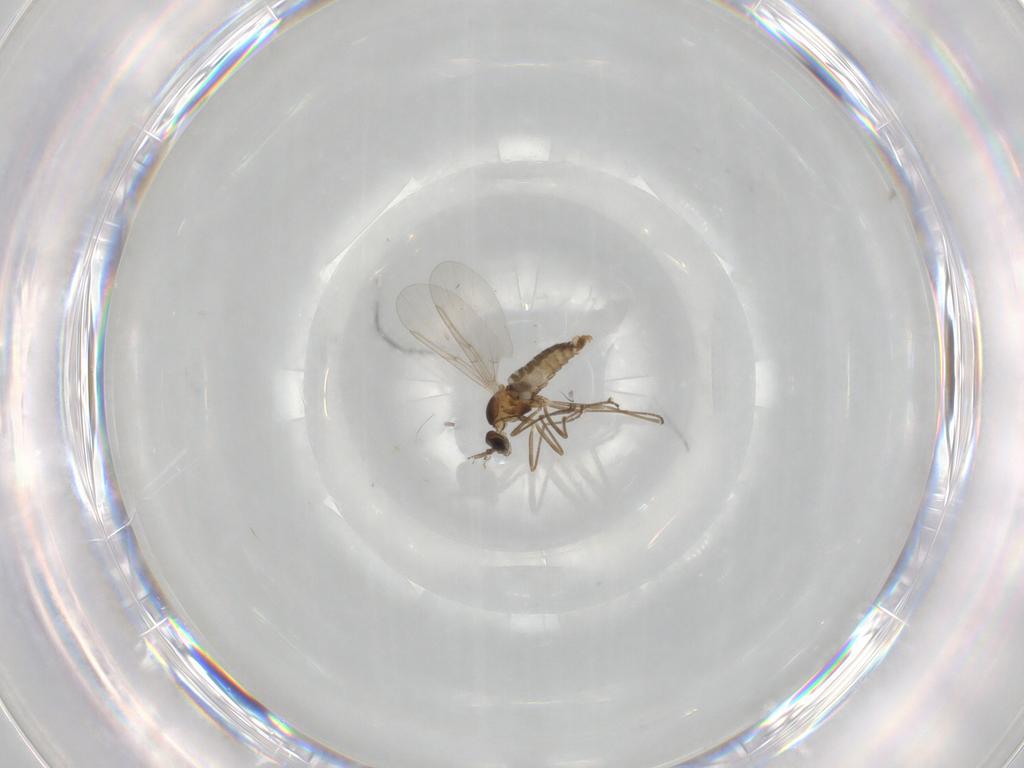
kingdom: Animalia
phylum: Arthropoda
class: Insecta
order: Diptera
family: Cecidomyiidae
